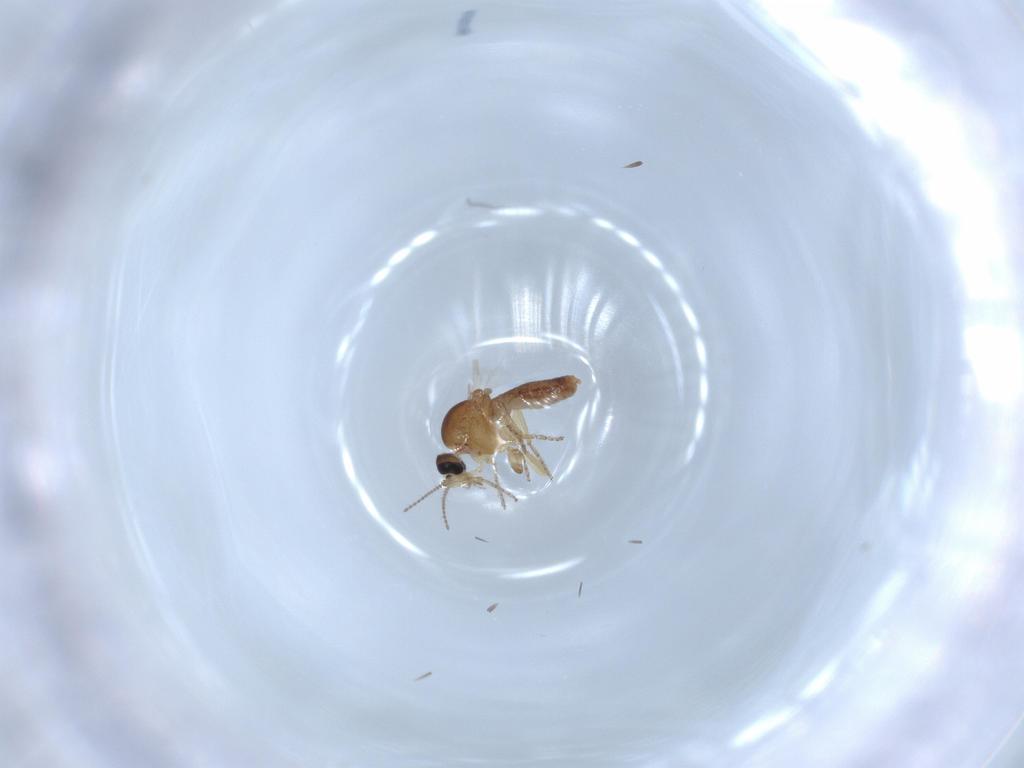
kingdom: Animalia
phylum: Arthropoda
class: Insecta
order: Diptera
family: Ceratopogonidae
